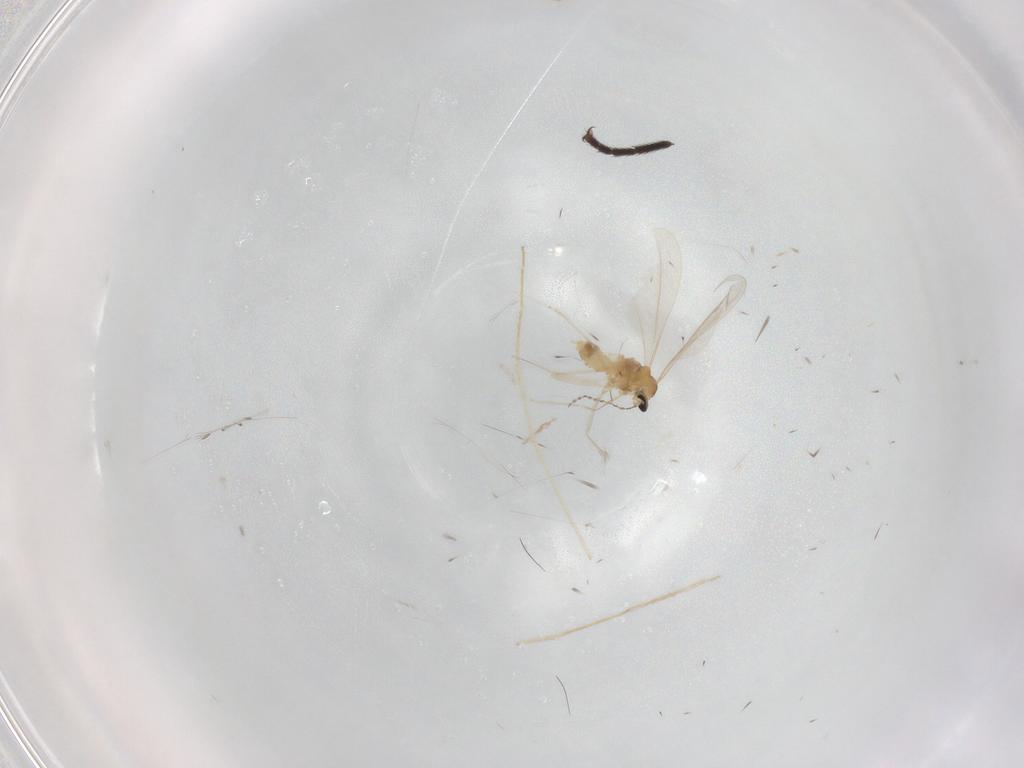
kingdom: Animalia
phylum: Arthropoda
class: Insecta
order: Diptera
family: Cecidomyiidae
